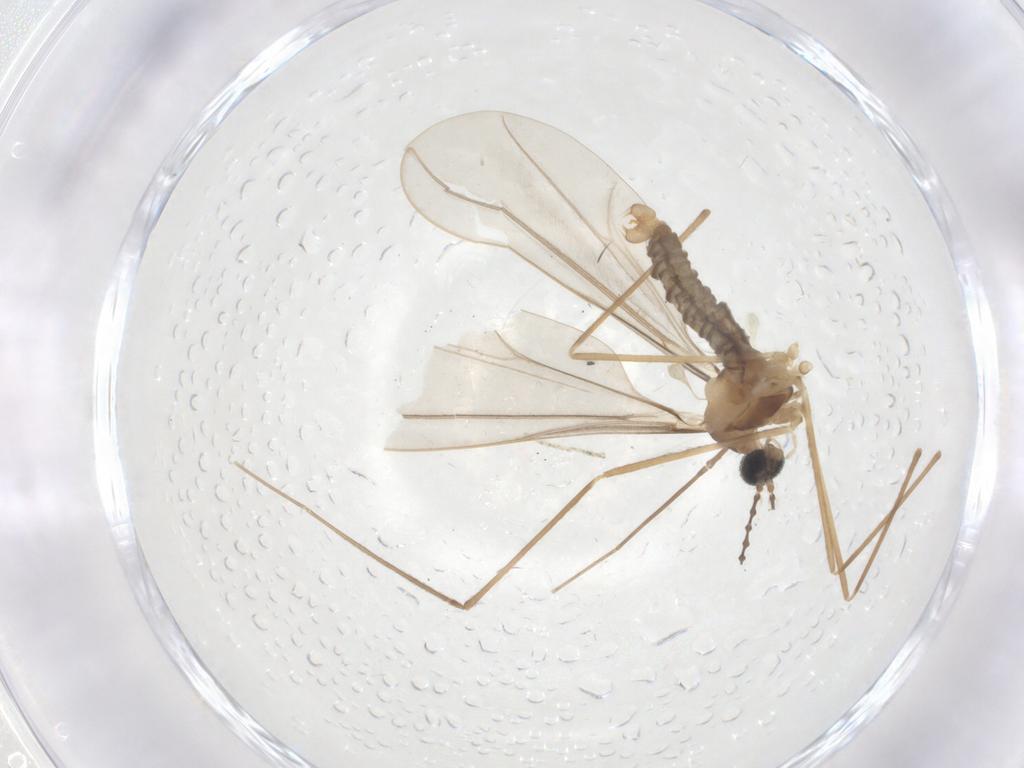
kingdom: Animalia
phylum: Arthropoda
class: Insecta
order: Diptera
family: Cecidomyiidae
